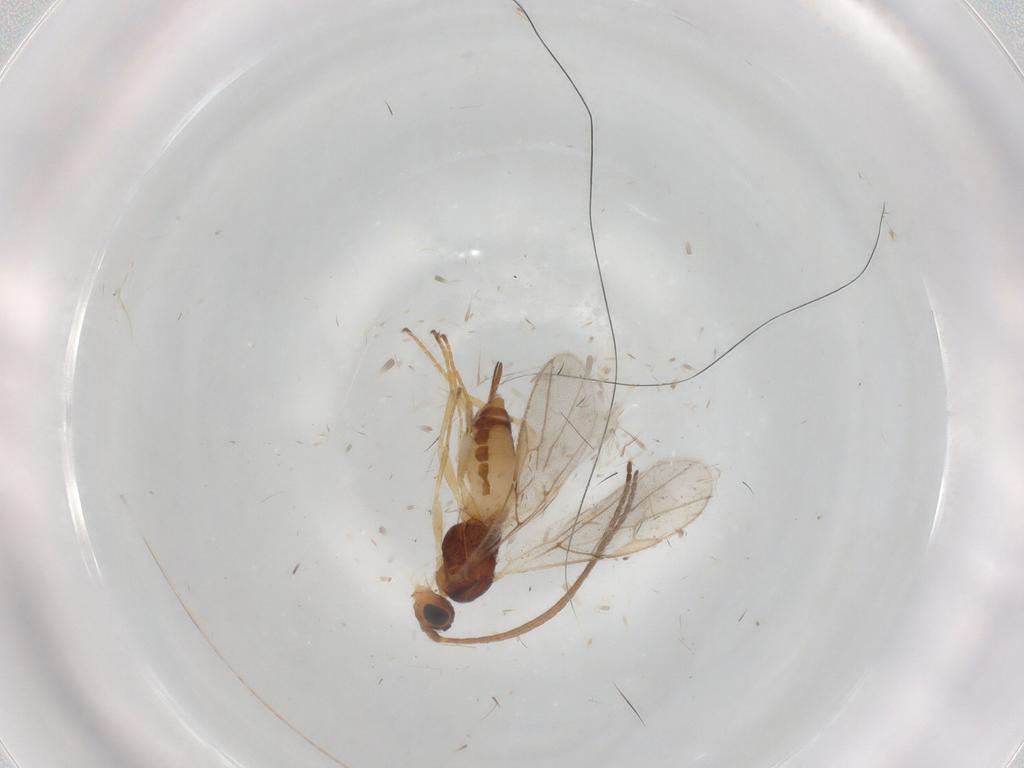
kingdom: Animalia
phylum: Arthropoda
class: Insecta
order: Hymenoptera
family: Braconidae
